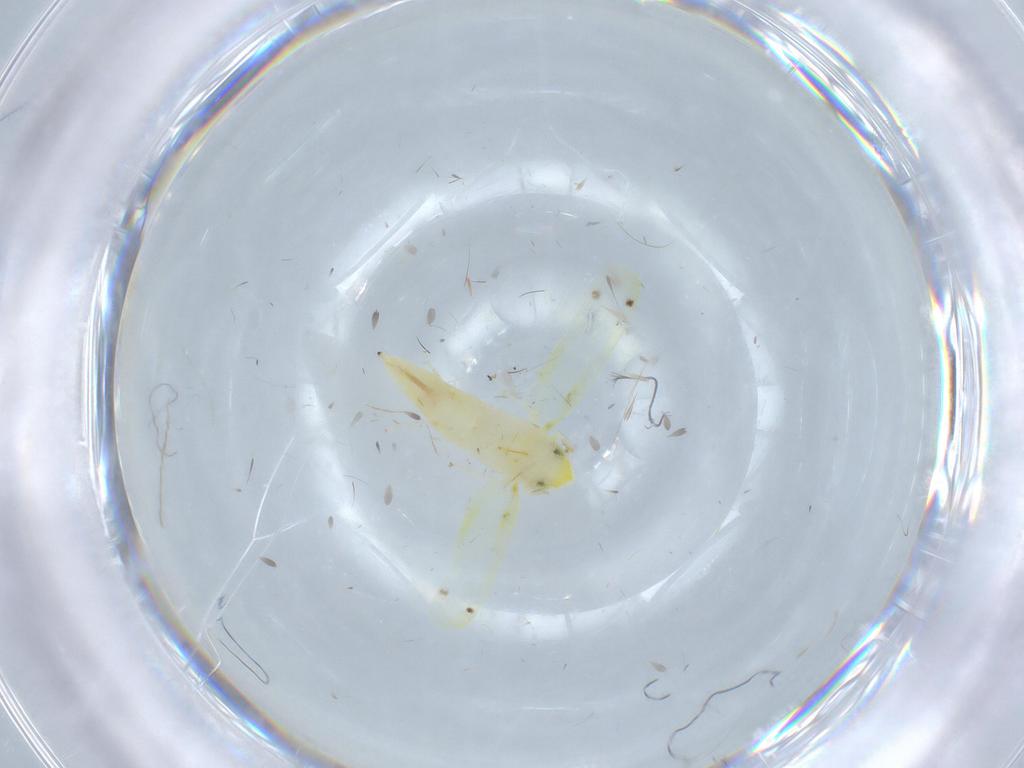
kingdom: Animalia
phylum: Arthropoda
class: Insecta
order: Hemiptera
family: Cicadellidae
